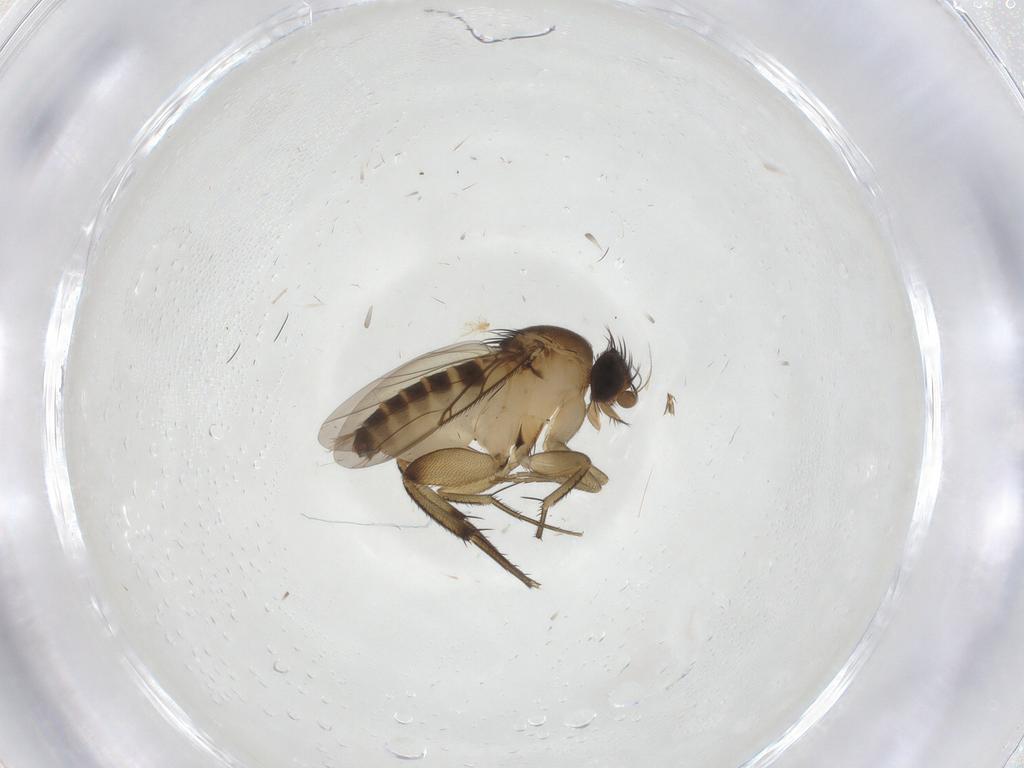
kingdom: Animalia
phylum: Arthropoda
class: Insecta
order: Diptera
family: Phoridae
